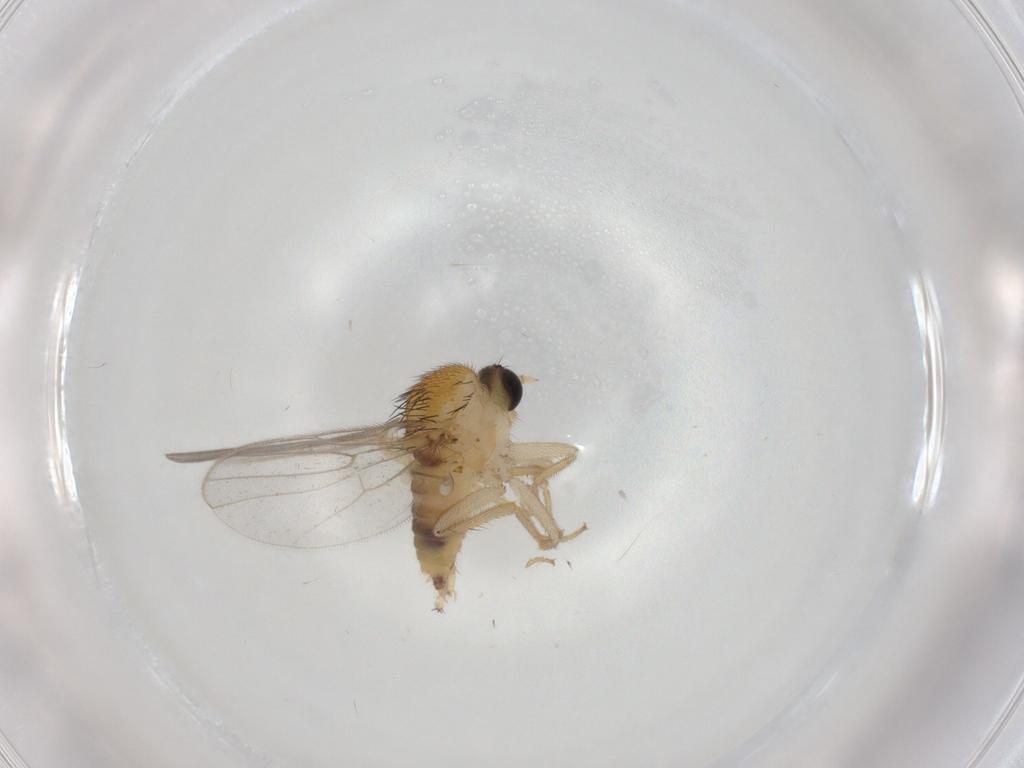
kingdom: Animalia
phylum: Arthropoda
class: Insecta
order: Diptera
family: Hybotidae
